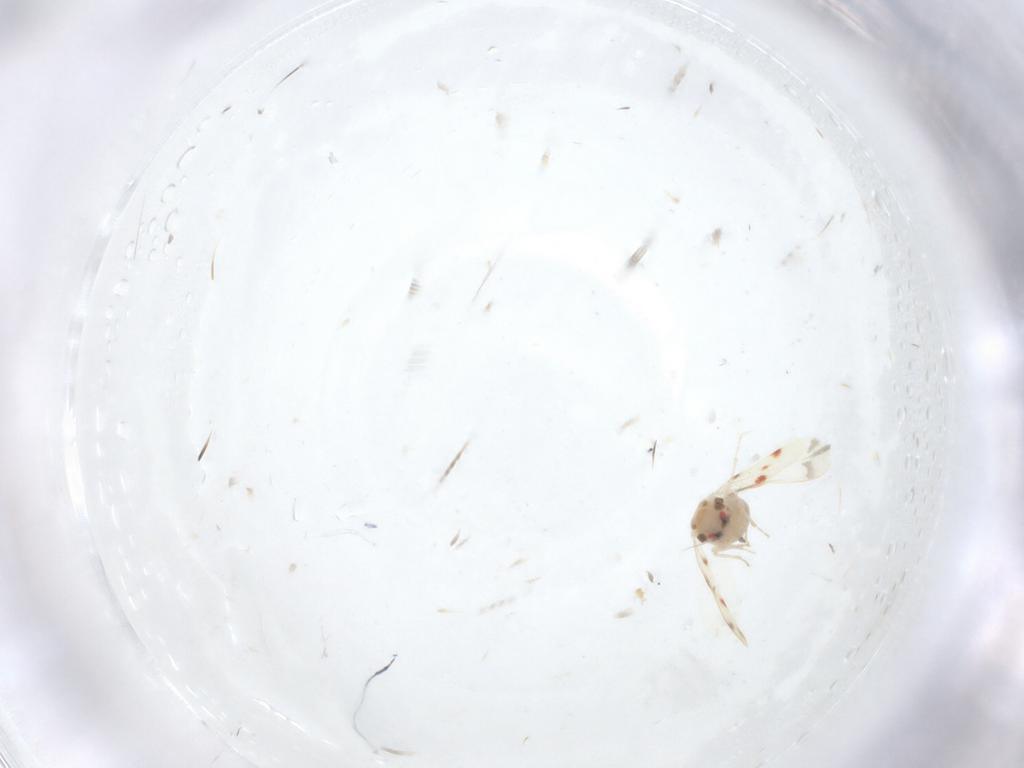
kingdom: Animalia
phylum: Arthropoda
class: Insecta
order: Hemiptera
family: Aleyrodidae
